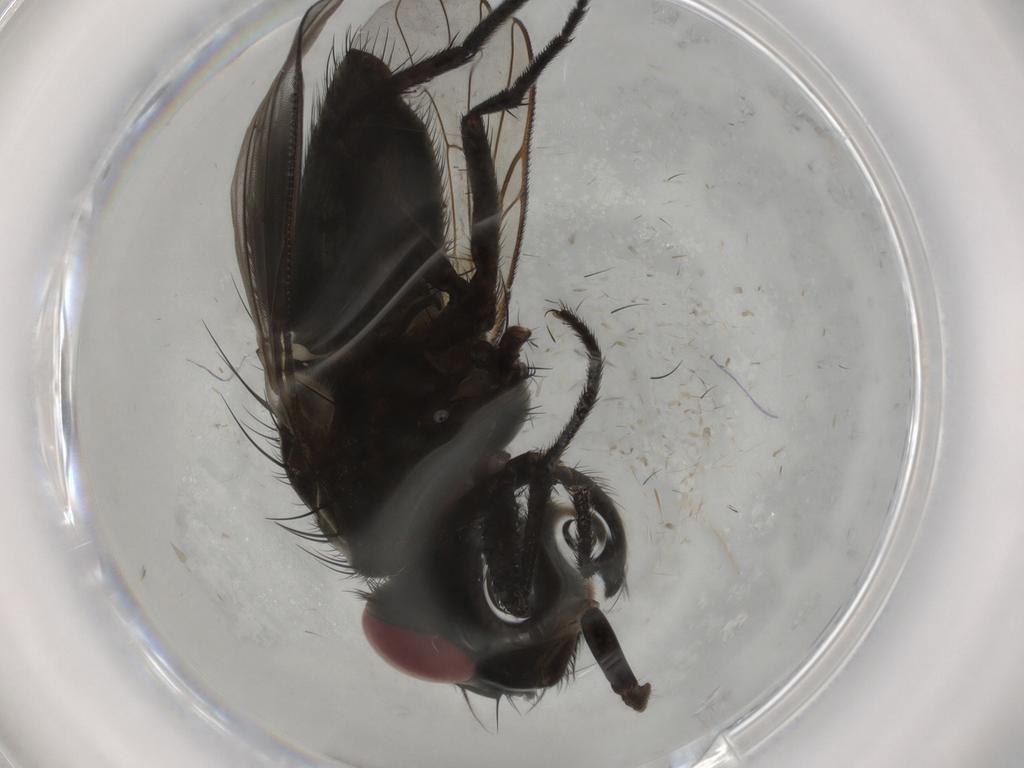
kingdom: Animalia
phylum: Arthropoda
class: Insecta
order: Diptera
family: Muscidae
